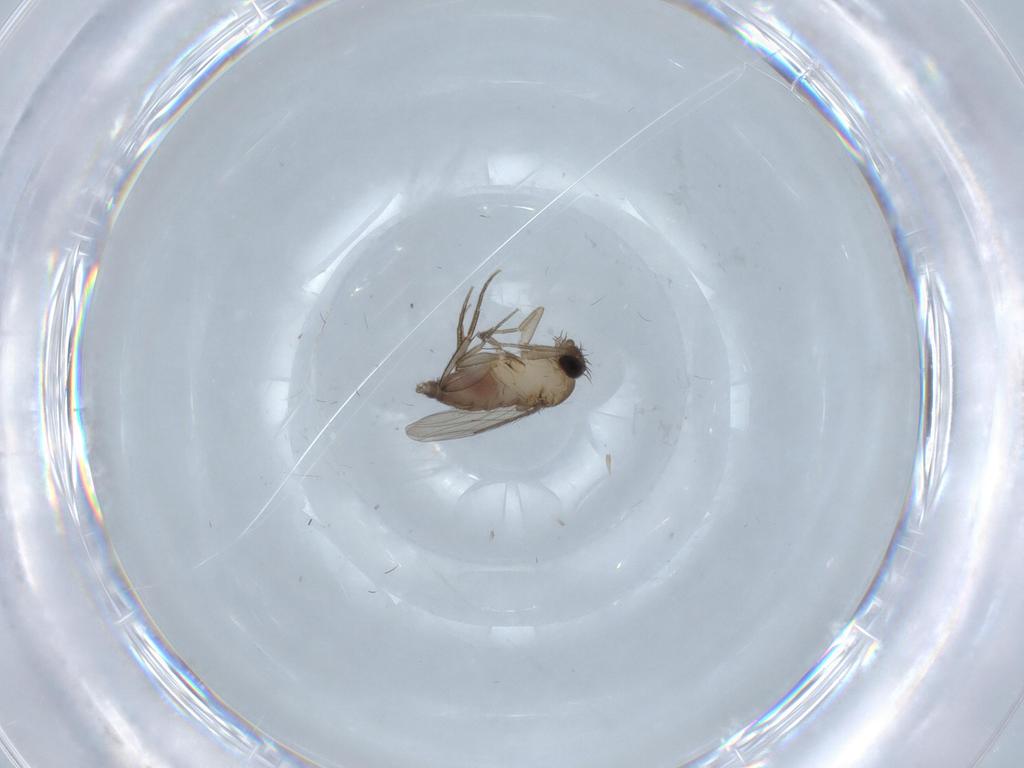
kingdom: Animalia
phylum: Arthropoda
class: Insecta
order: Diptera
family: Phoridae
